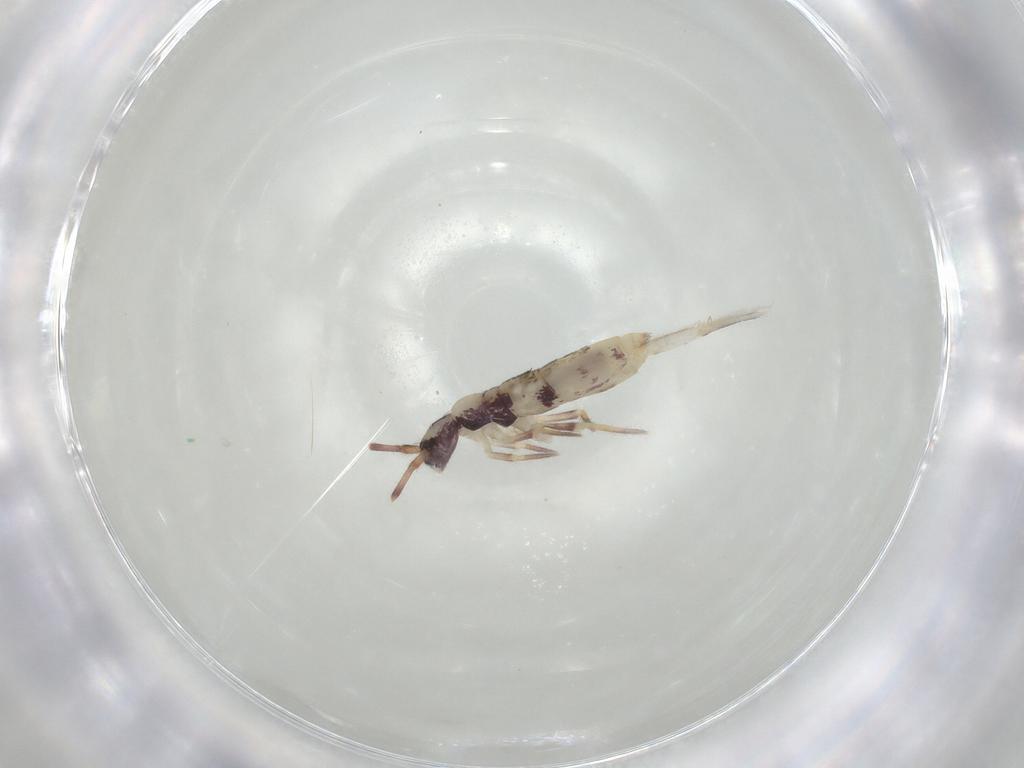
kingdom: Animalia
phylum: Arthropoda
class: Collembola
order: Entomobryomorpha
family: Entomobryidae
